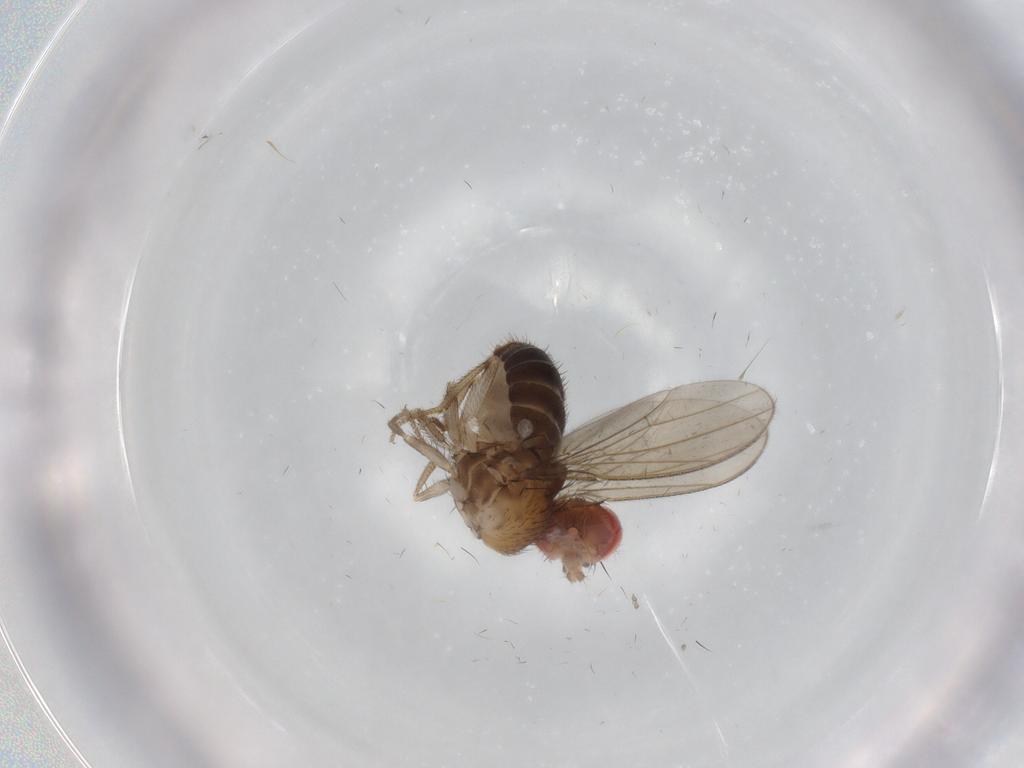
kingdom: Animalia
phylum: Arthropoda
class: Insecta
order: Diptera
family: Drosophilidae
